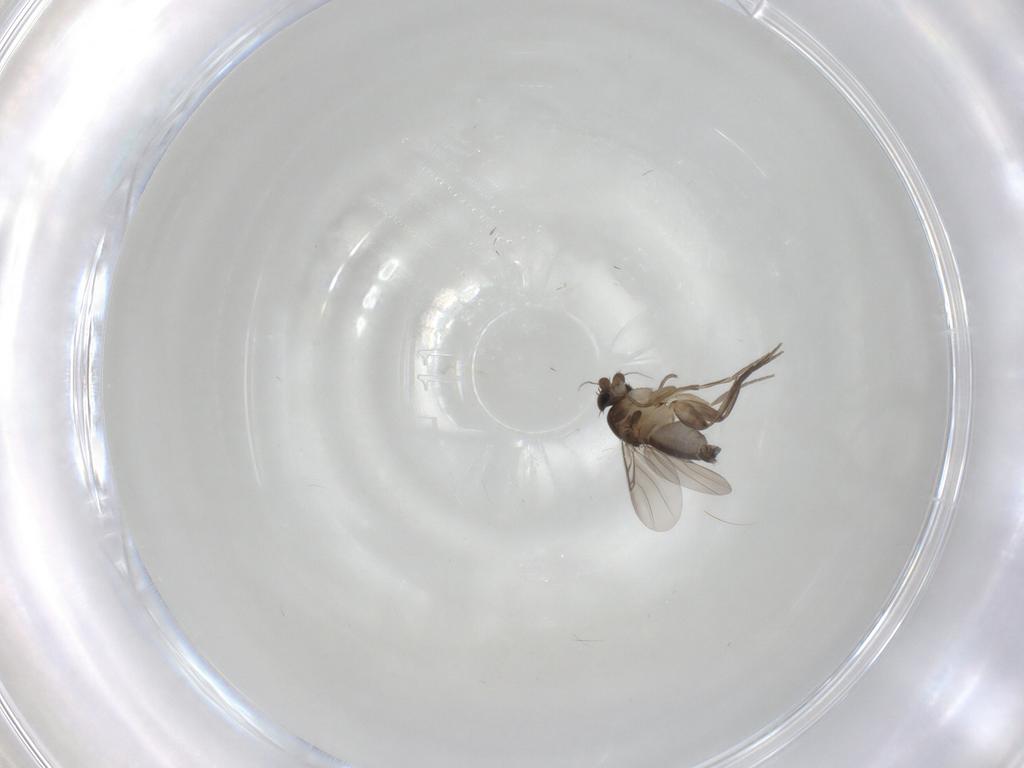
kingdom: Animalia
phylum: Arthropoda
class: Insecta
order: Diptera
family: Phoridae
